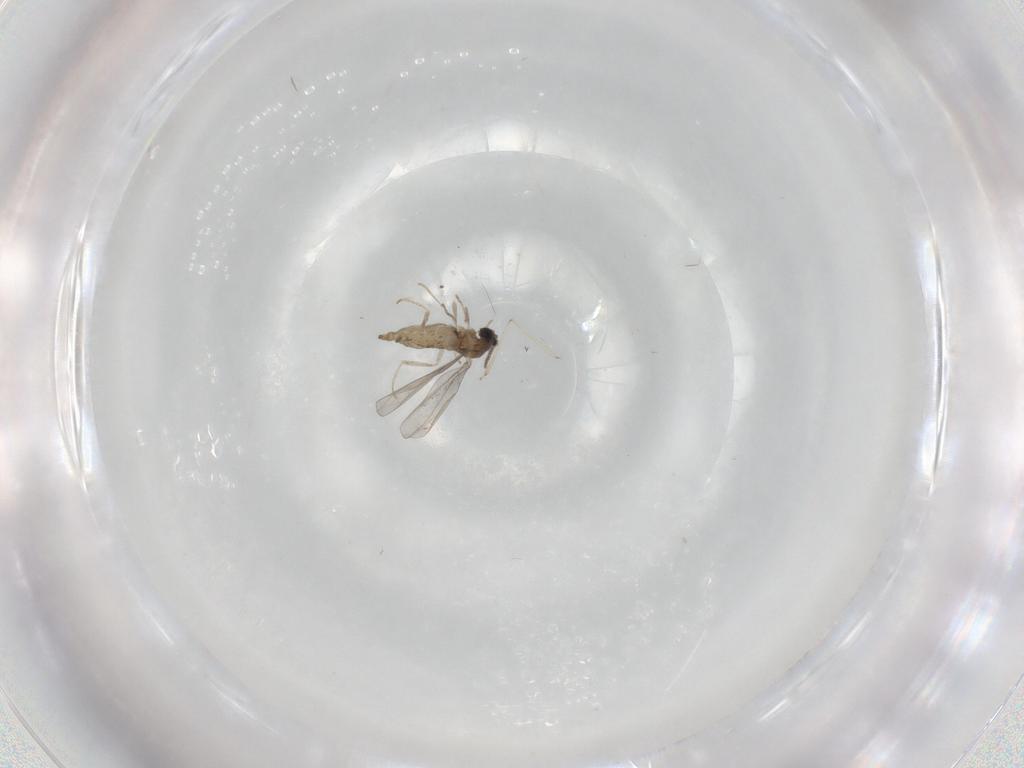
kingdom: Animalia
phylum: Arthropoda
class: Insecta
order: Diptera
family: Cecidomyiidae
